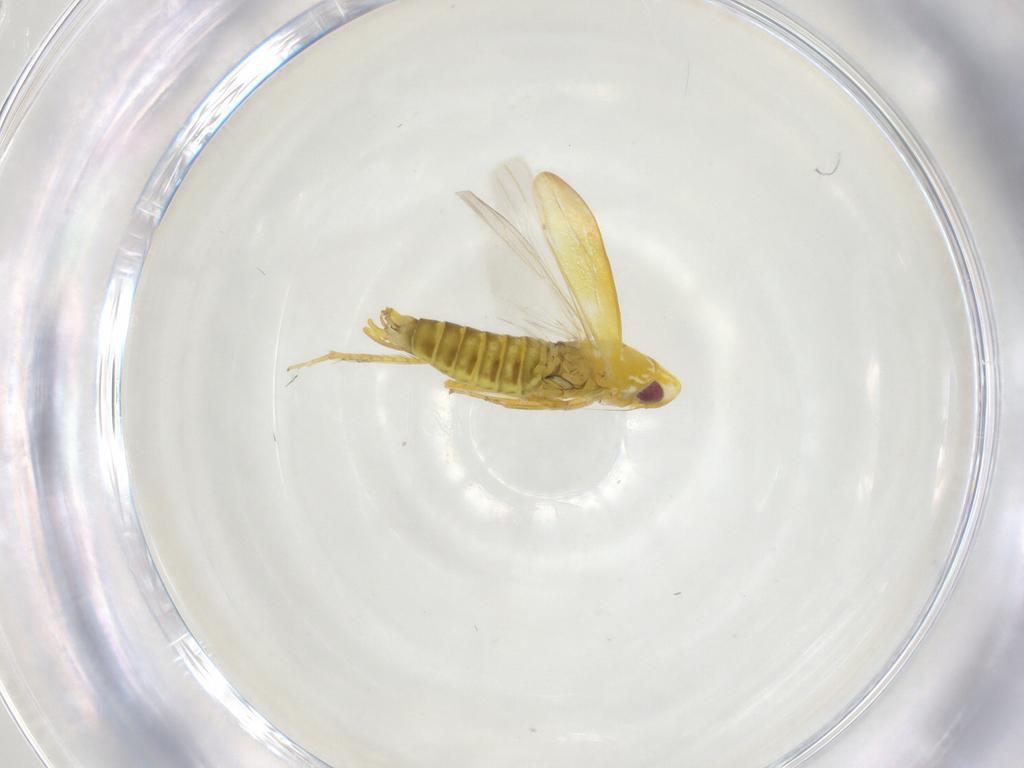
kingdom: Animalia
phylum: Arthropoda
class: Insecta
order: Hemiptera
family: Cicadellidae
